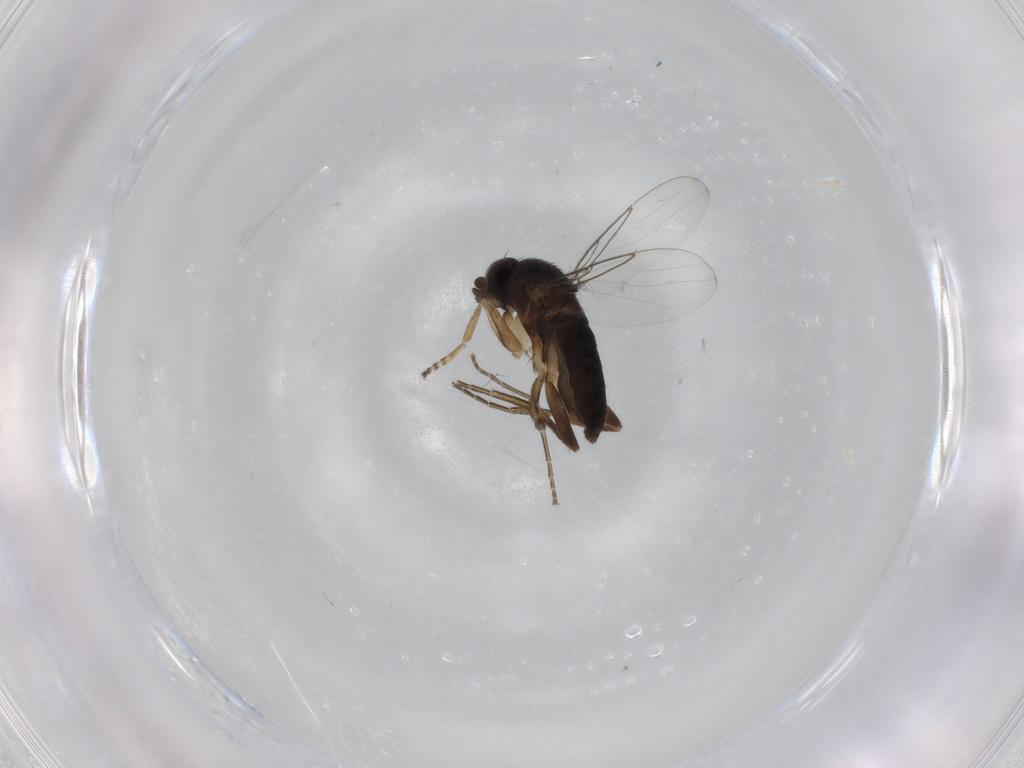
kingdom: Animalia
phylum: Arthropoda
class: Insecta
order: Diptera
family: Phoridae
